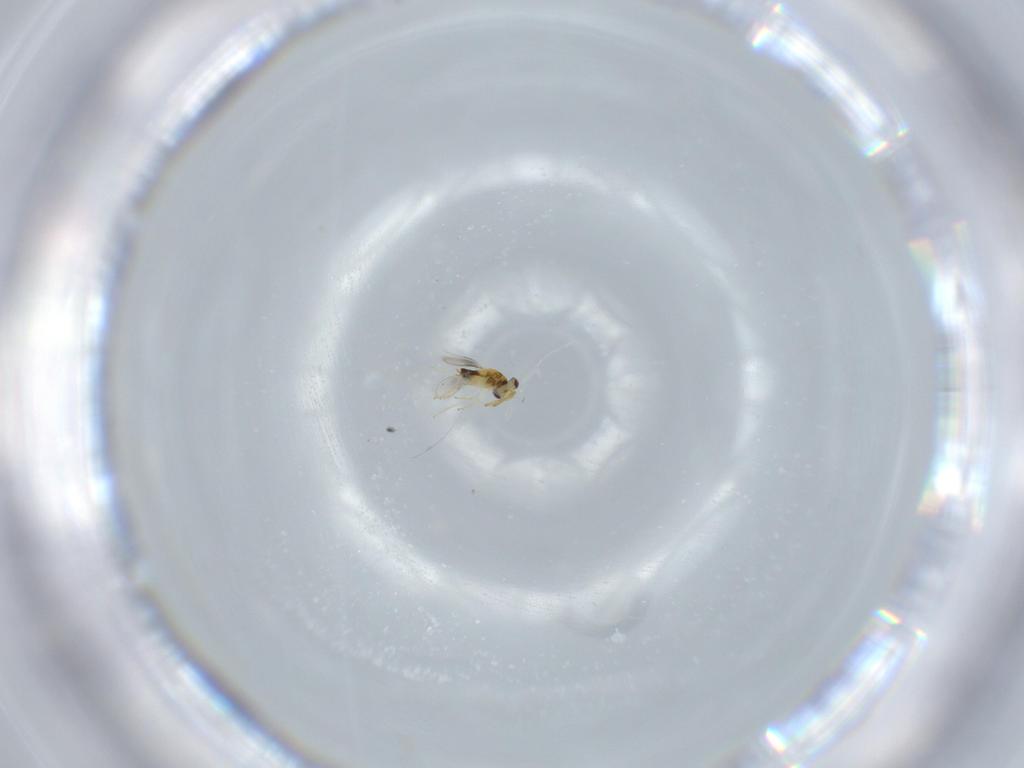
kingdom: Animalia
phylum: Arthropoda
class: Insecta
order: Hymenoptera
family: Aphelinidae
